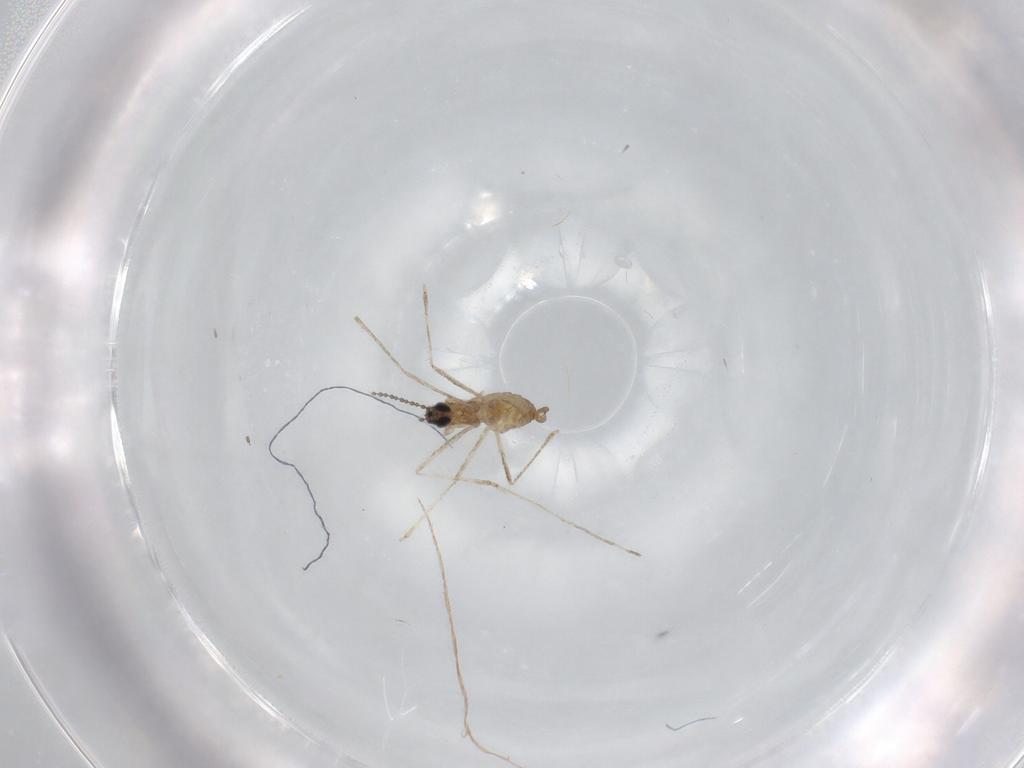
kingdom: Animalia
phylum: Arthropoda
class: Insecta
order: Diptera
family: Cecidomyiidae
